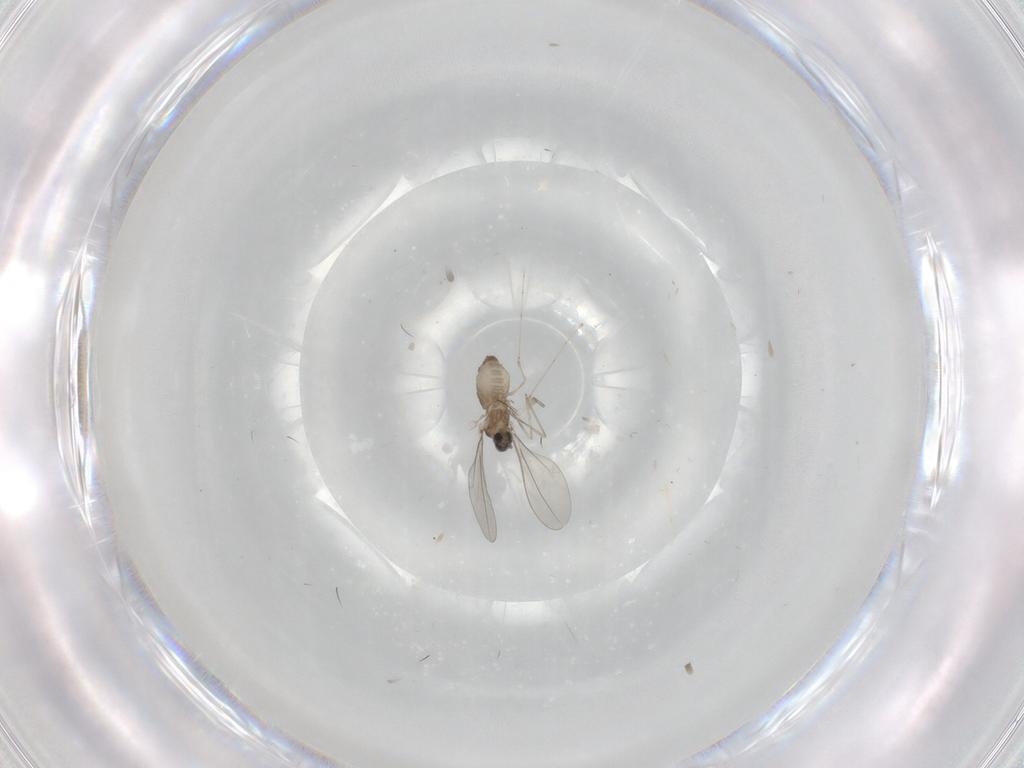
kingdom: Animalia
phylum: Arthropoda
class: Insecta
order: Diptera
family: Cecidomyiidae
